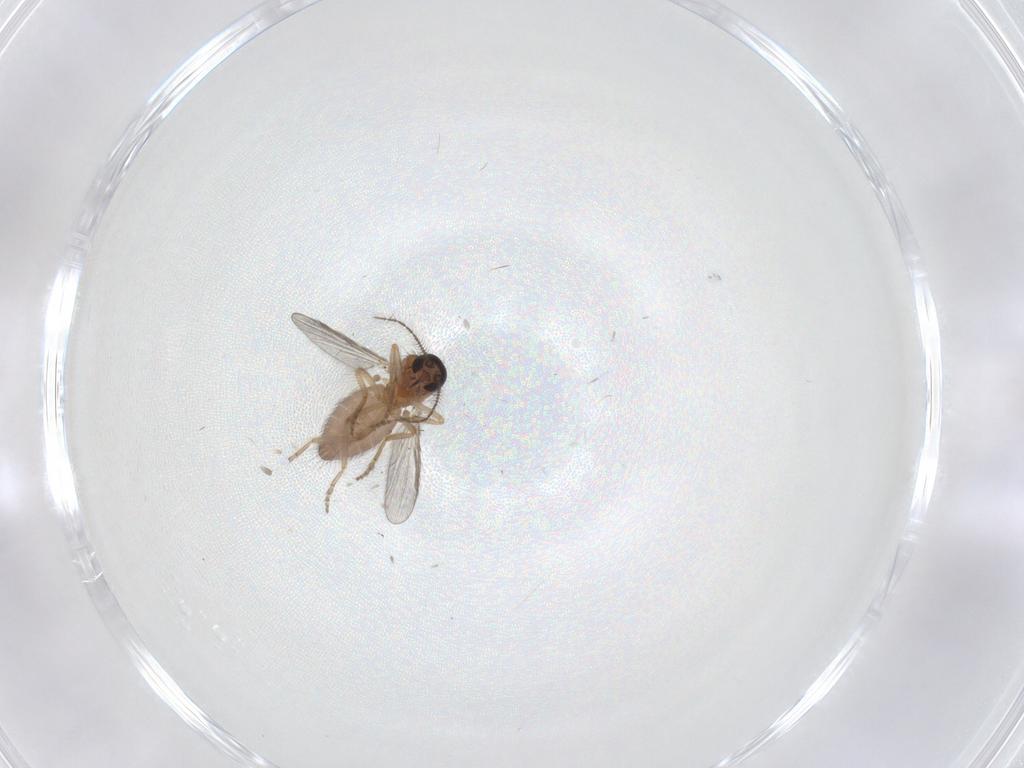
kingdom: Animalia
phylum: Arthropoda
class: Insecta
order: Diptera
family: Ceratopogonidae
